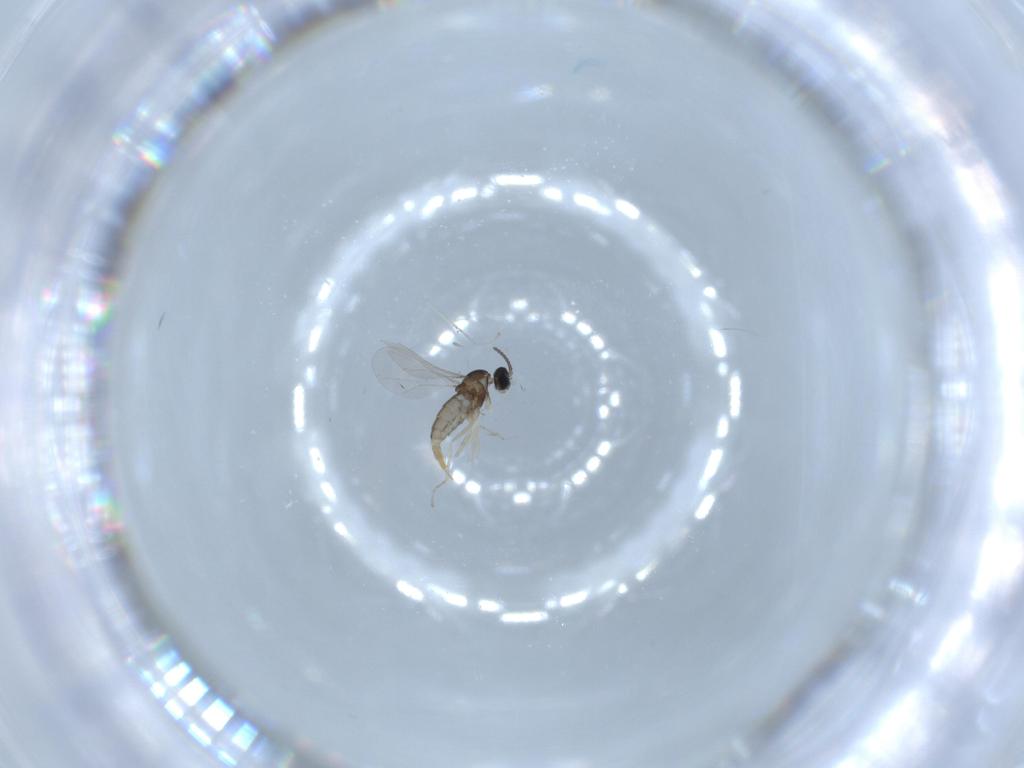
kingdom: Animalia
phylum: Arthropoda
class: Insecta
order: Diptera
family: Cecidomyiidae
